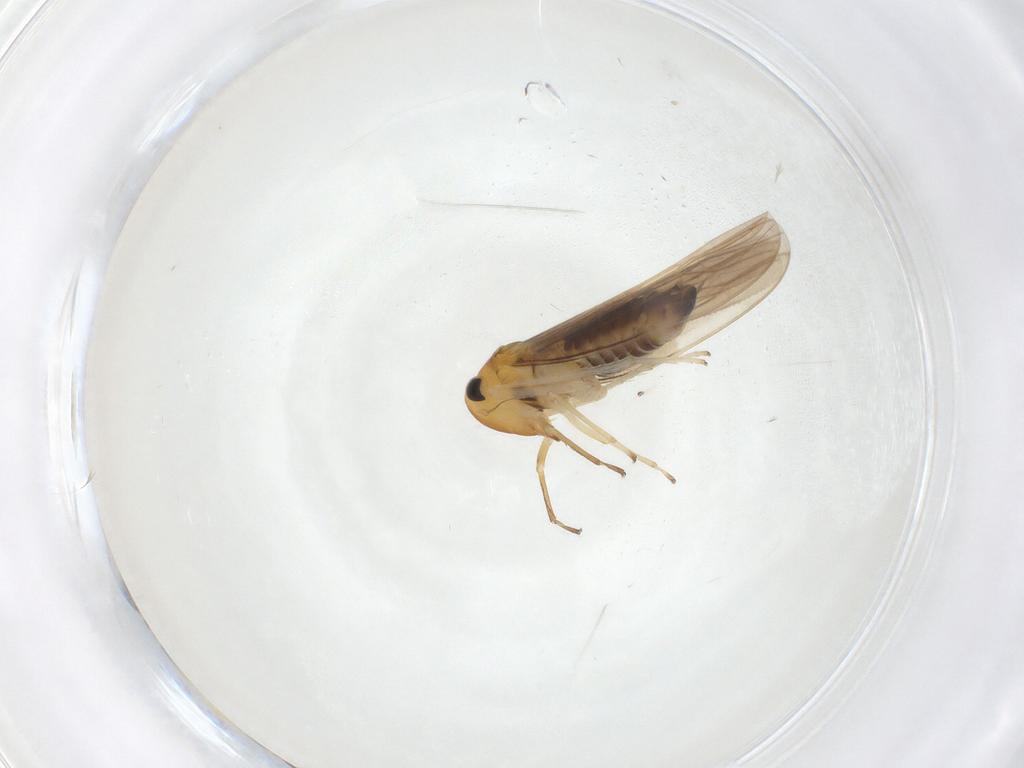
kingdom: Animalia
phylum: Arthropoda
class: Insecta
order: Hemiptera
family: Cicadellidae
